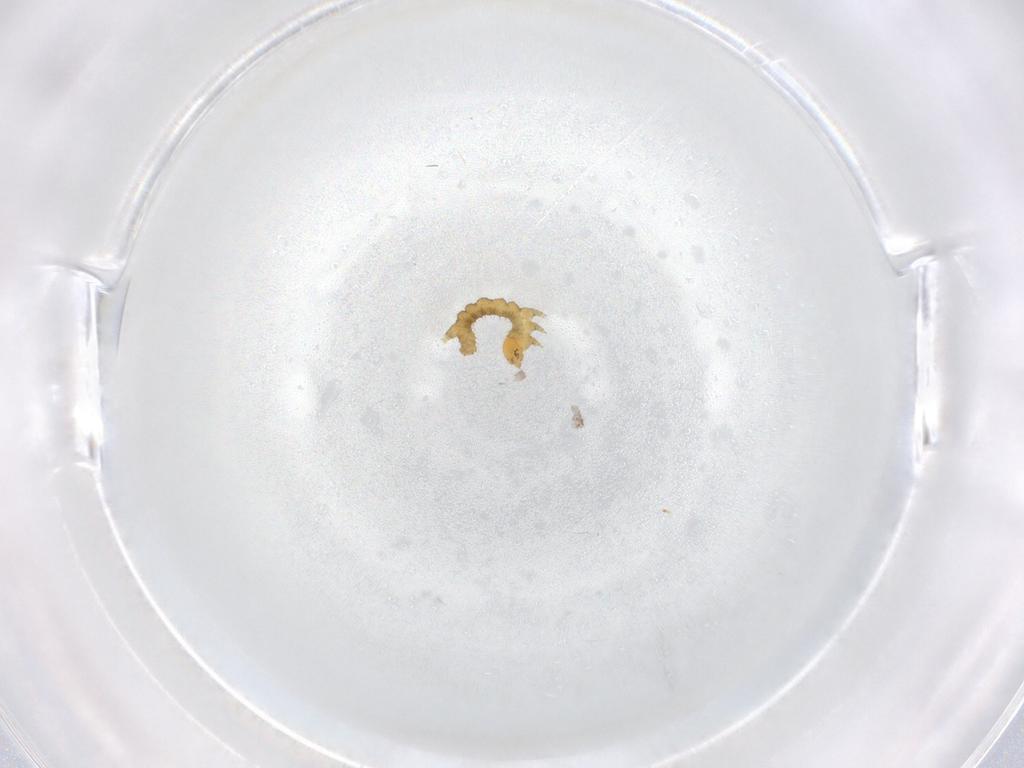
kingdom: Animalia
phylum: Arthropoda
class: Insecta
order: Lepidoptera
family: Geometridae
